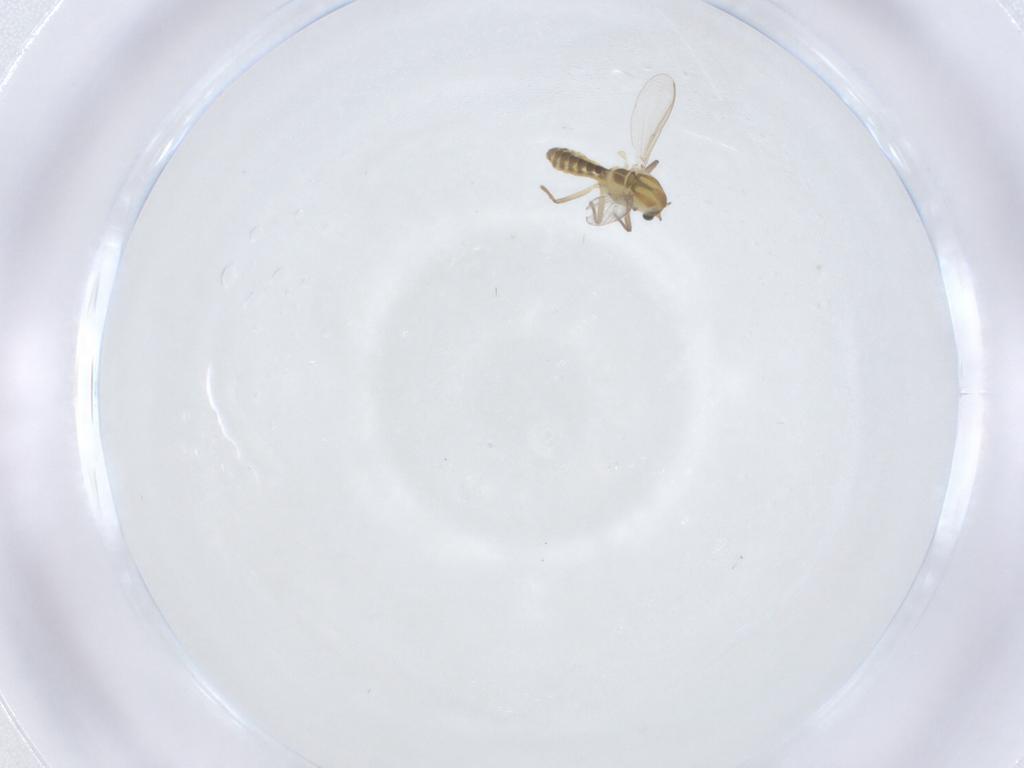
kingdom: Animalia
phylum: Arthropoda
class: Insecta
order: Diptera
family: Chironomidae
